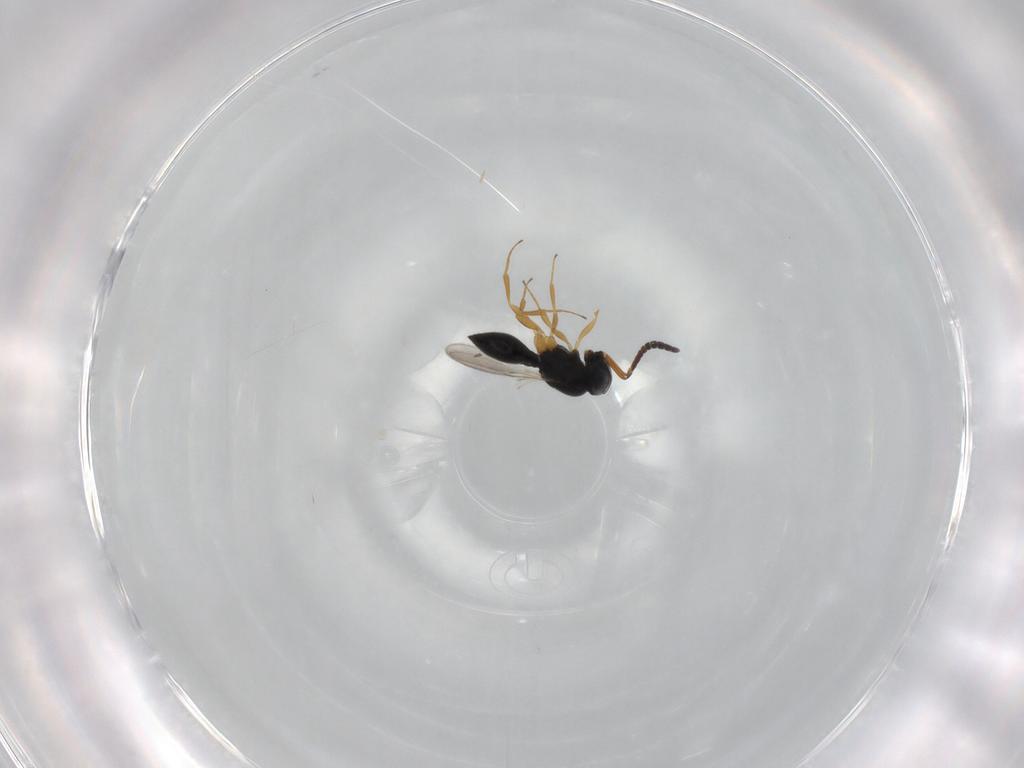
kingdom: Animalia
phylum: Arthropoda
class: Insecta
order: Hymenoptera
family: Scelionidae
